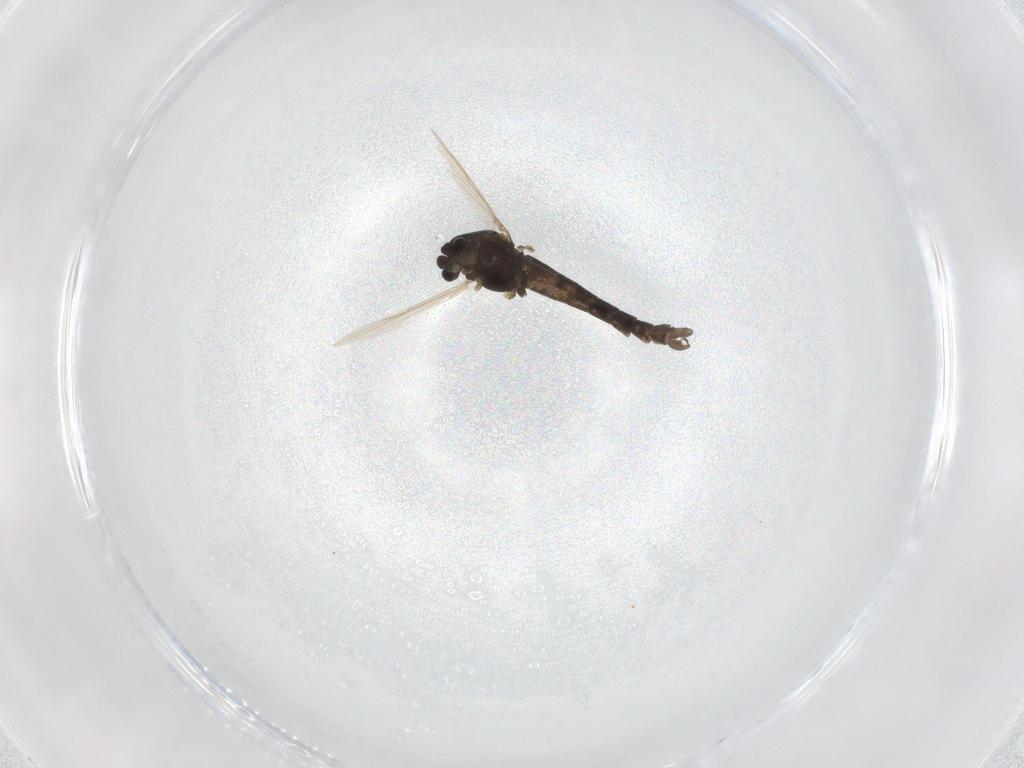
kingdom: Animalia
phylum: Arthropoda
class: Insecta
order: Diptera
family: Chironomidae
